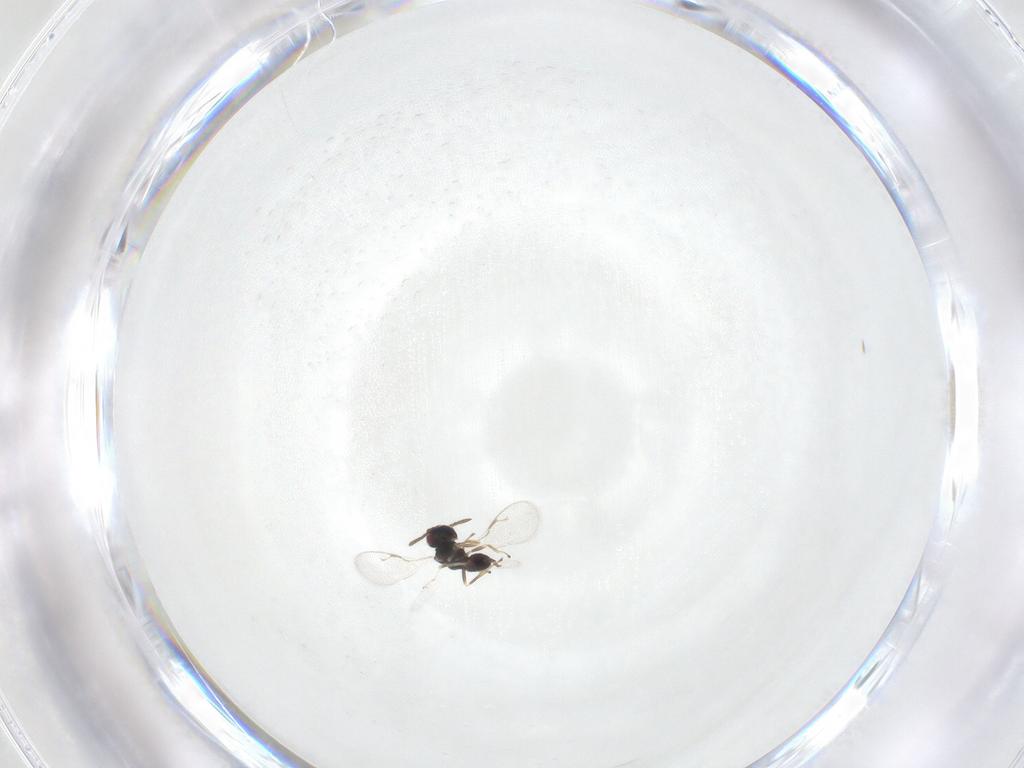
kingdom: Animalia
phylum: Arthropoda
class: Insecta
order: Hymenoptera
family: Pteromalidae
